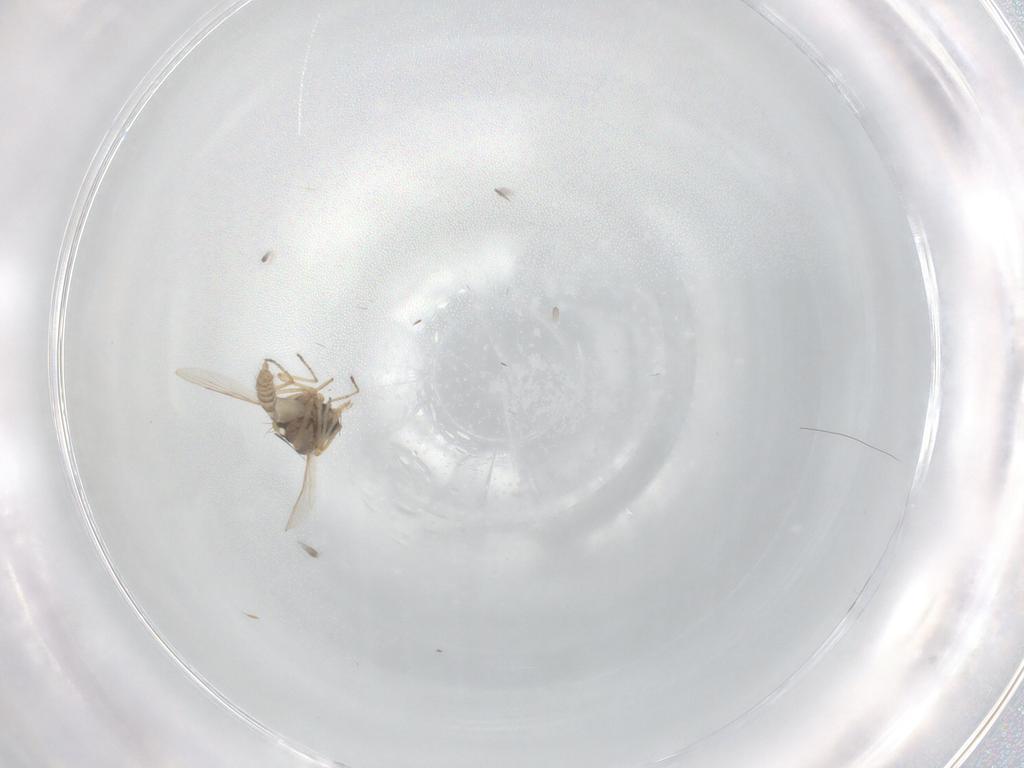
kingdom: Animalia
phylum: Arthropoda
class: Insecta
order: Diptera
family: Ceratopogonidae
